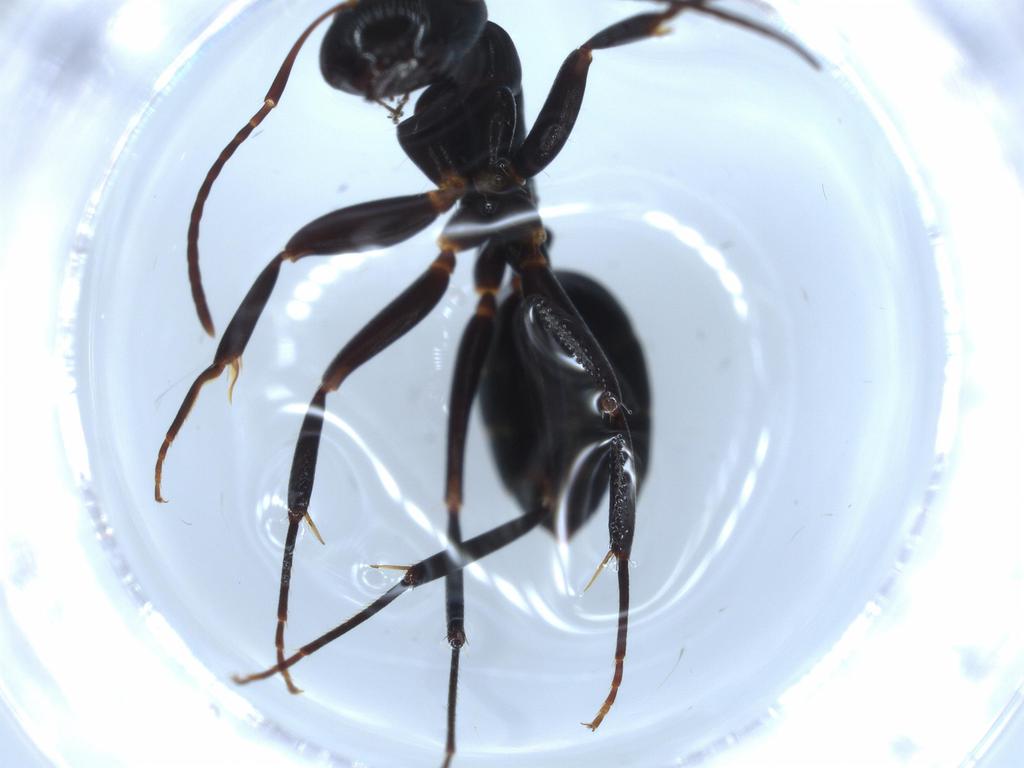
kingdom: Animalia
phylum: Arthropoda
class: Insecta
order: Hymenoptera
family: Formicidae
